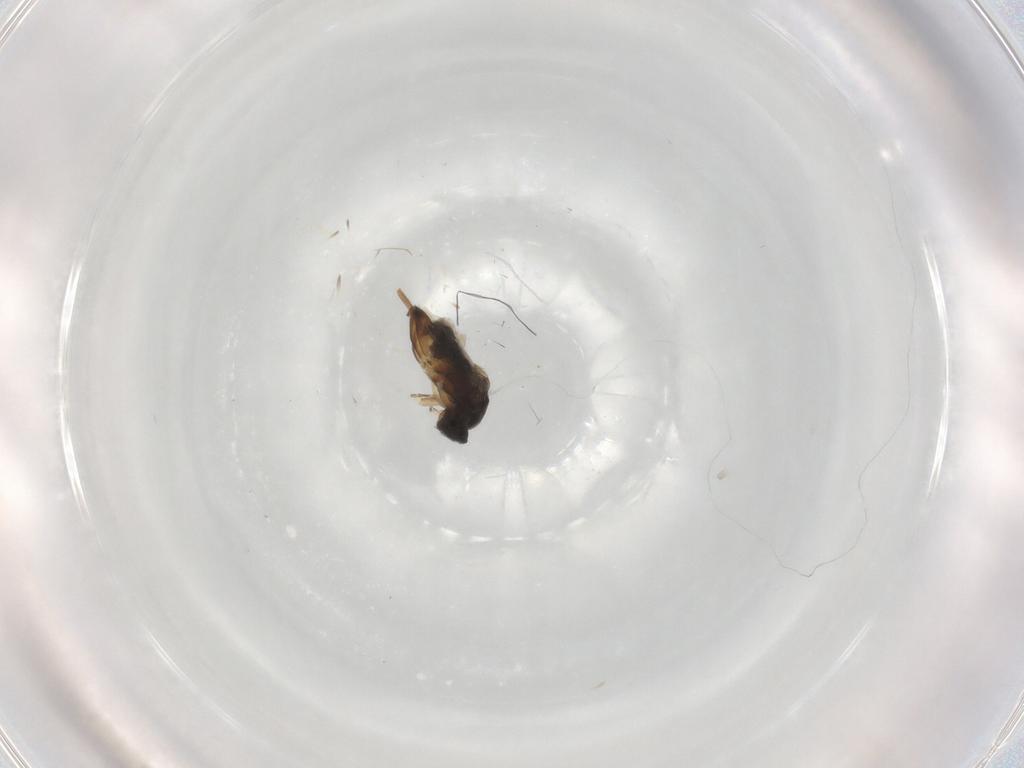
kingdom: Animalia
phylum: Arthropoda
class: Insecta
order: Diptera
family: Phoridae
